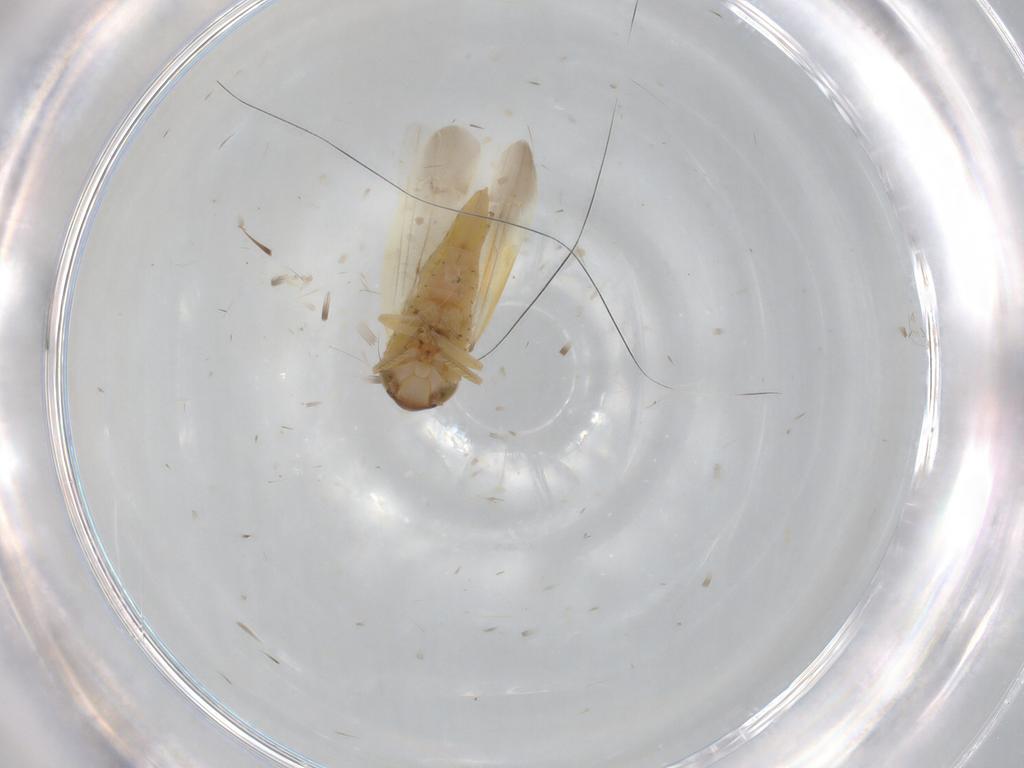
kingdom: Animalia
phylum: Arthropoda
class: Insecta
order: Hemiptera
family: Cicadellidae
